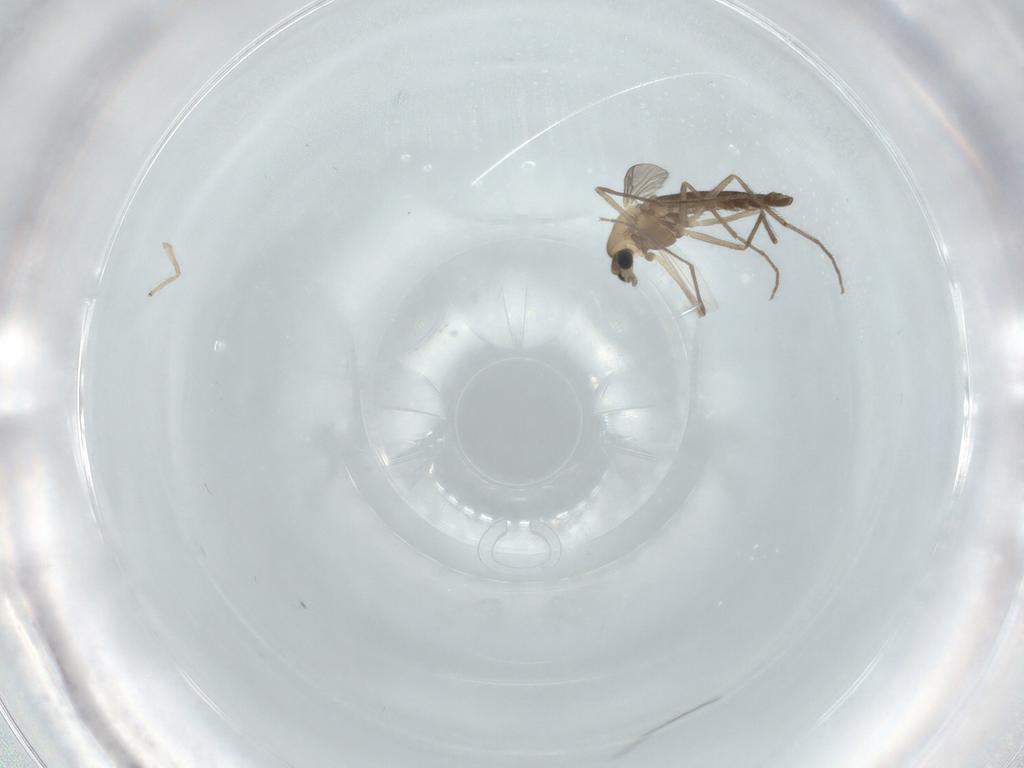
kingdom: Animalia
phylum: Arthropoda
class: Insecta
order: Diptera
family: Chironomidae
